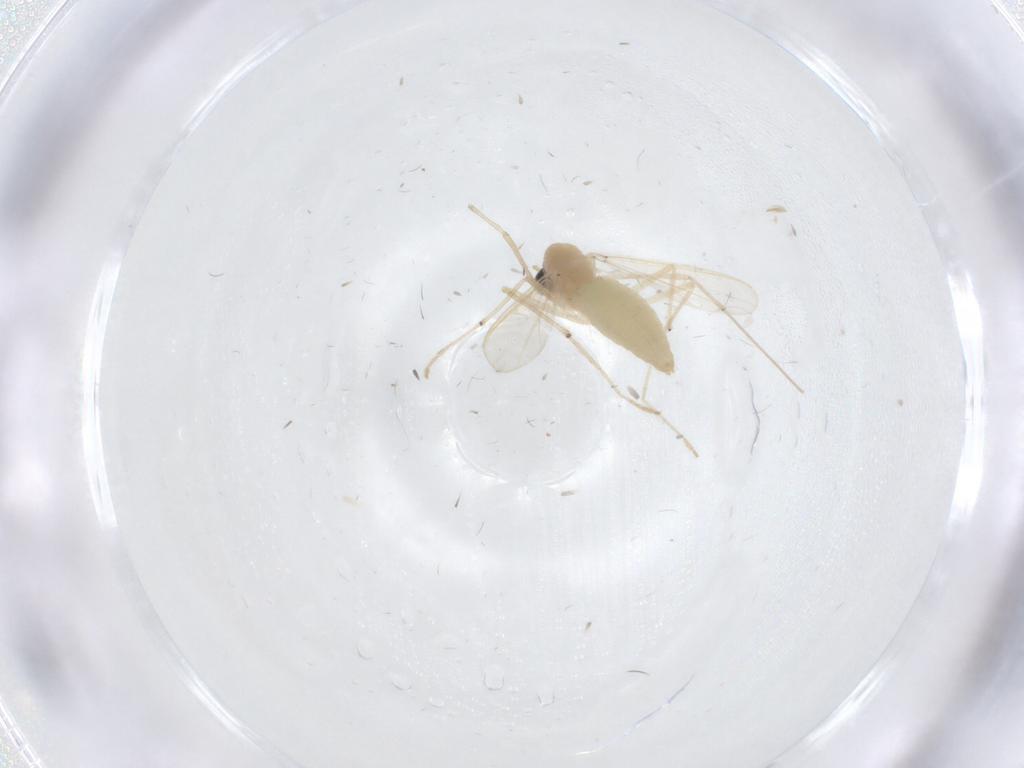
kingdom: Animalia
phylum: Arthropoda
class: Insecta
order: Diptera
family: Chironomidae
